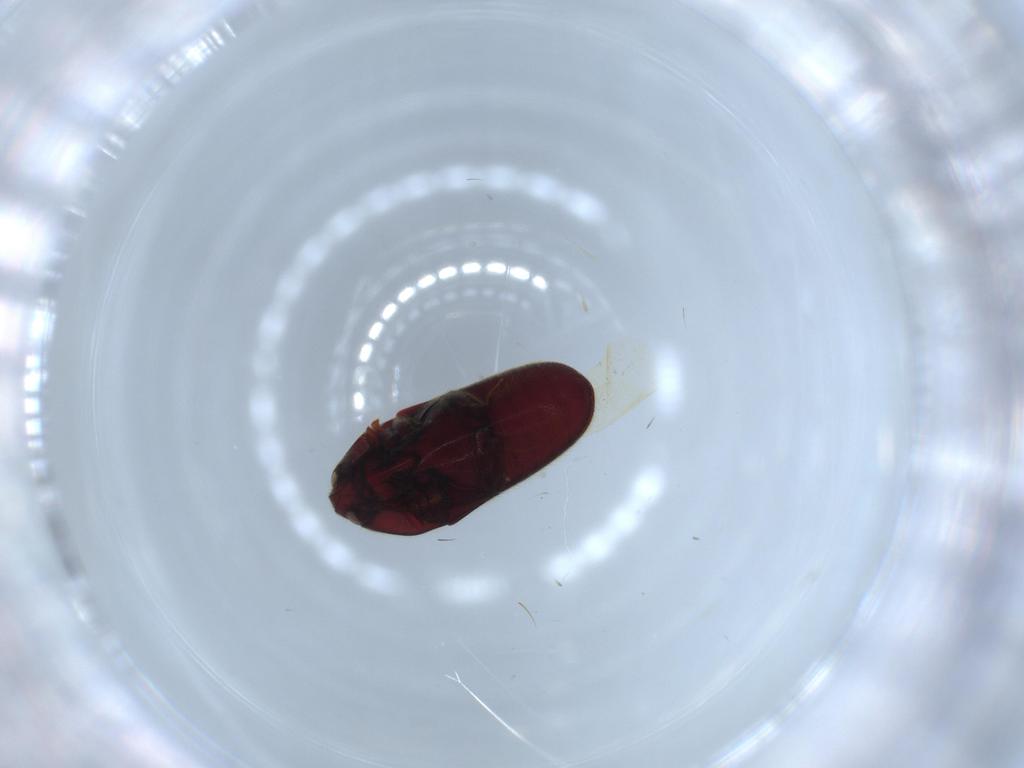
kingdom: Animalia
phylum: Arthropoda
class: Insecta
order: Coleoptera
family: Throscidae
